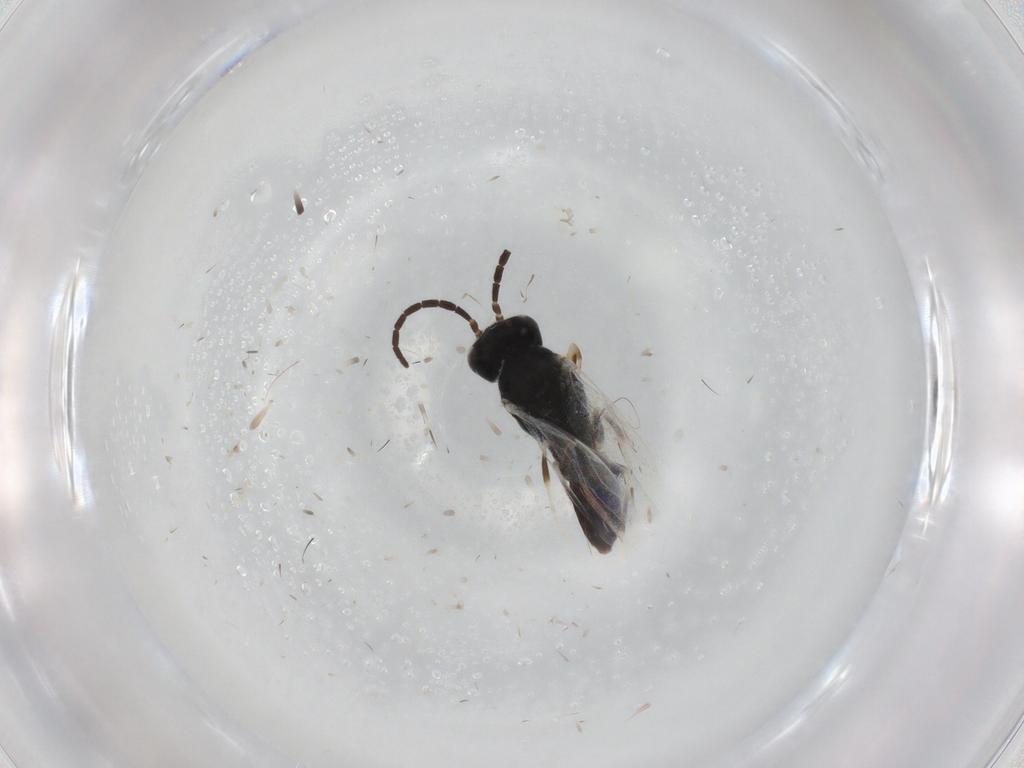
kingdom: Animalia
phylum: Arthropoda
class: Insecta
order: Hymenoptera
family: Dryinidae
